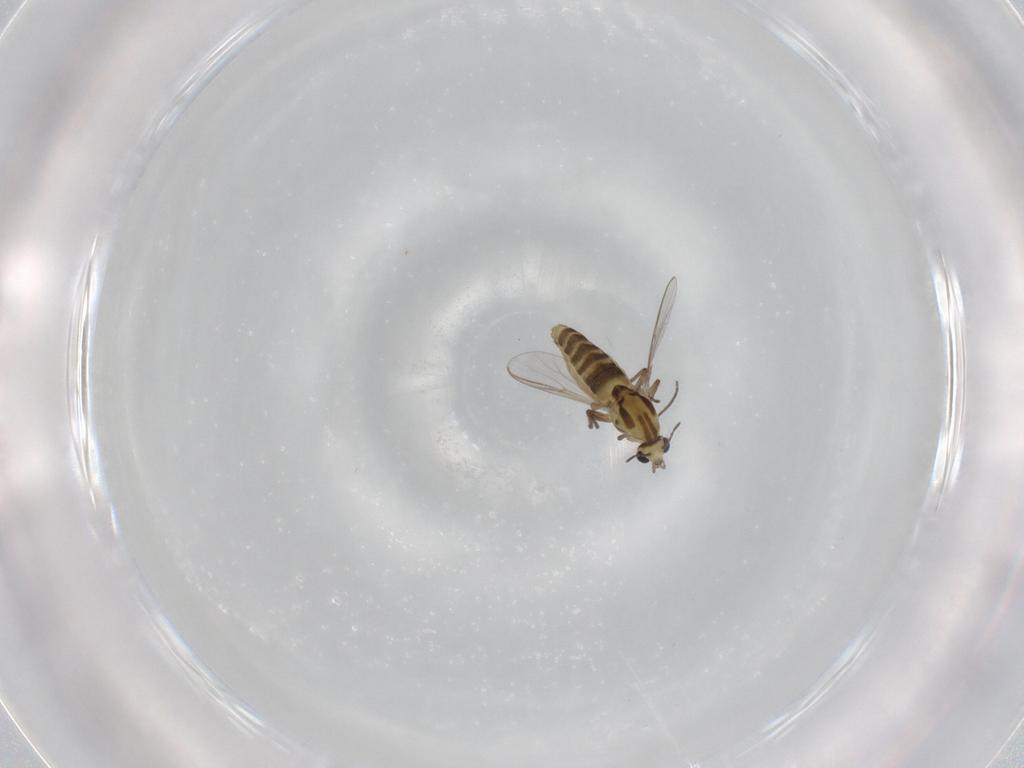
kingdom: Animalia
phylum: Arthropoda
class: Insecta
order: Diptera
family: Chironomidae
